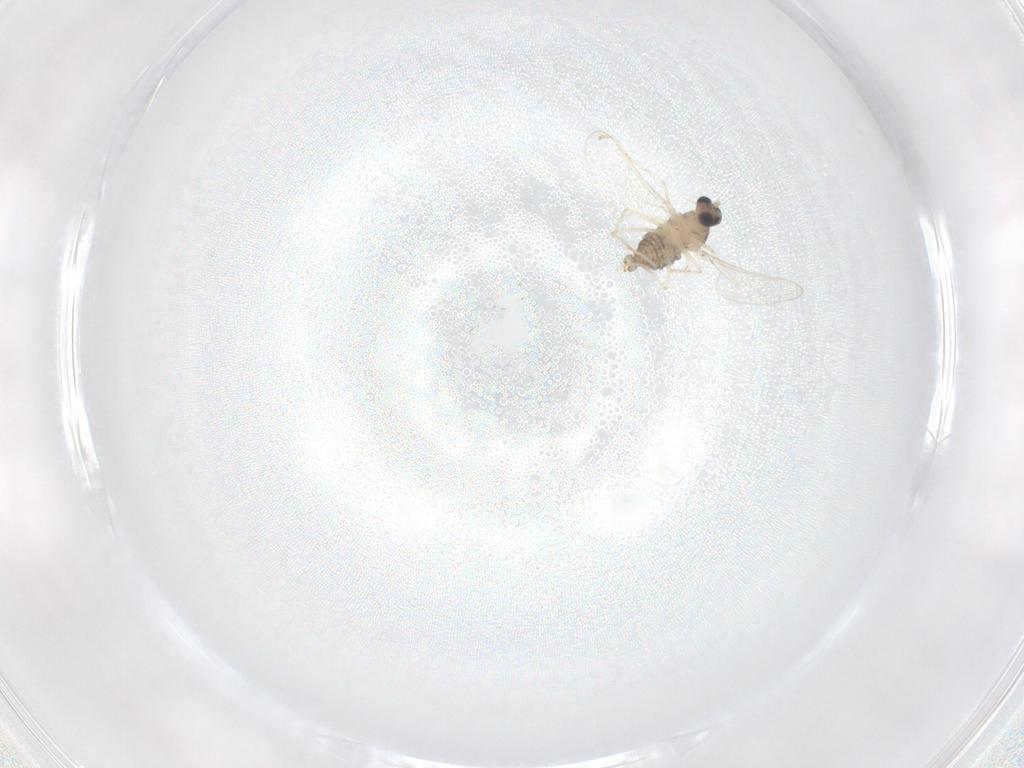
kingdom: Animalia
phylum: Arthropoda
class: Insecta
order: Diptera
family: Cecidomyiidae
